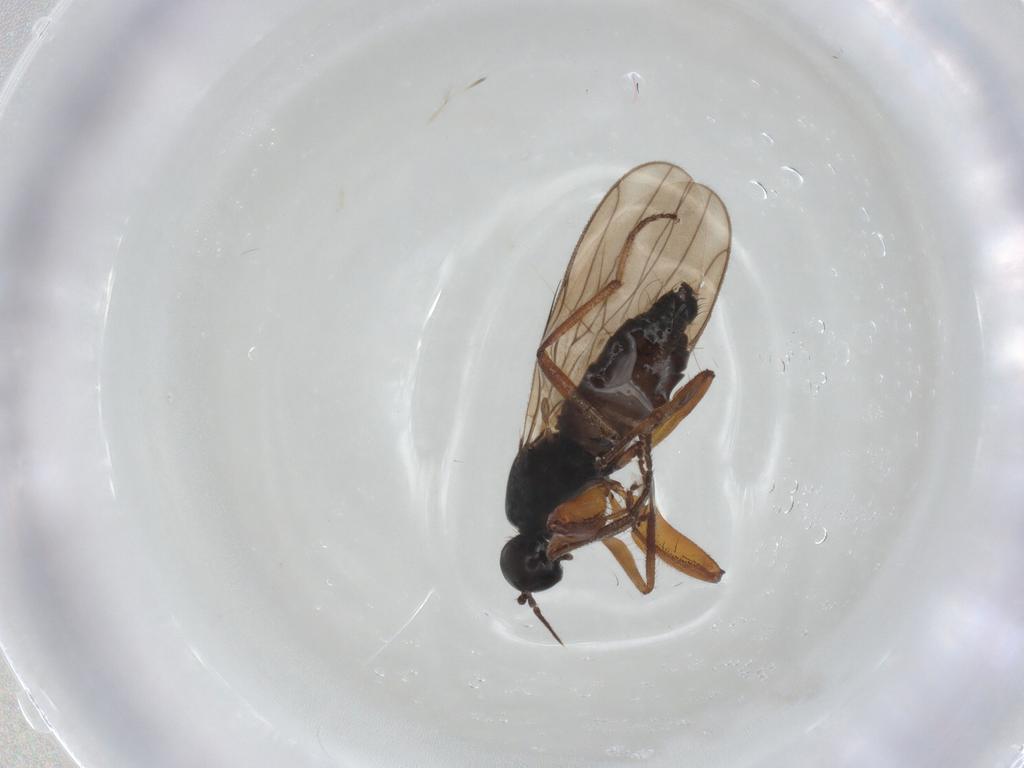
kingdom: Animalia
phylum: Arthropoda
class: Insecta
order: Diptera
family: Hybotidae
